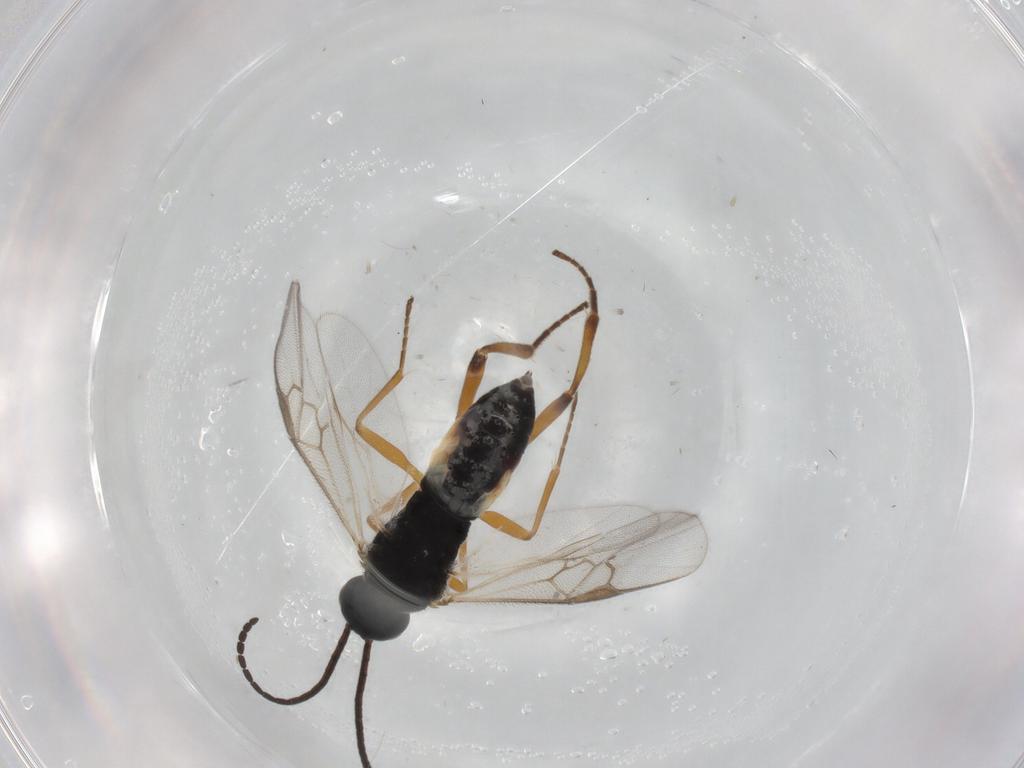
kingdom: Animalia
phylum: Arthropoda
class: Insecta
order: Hymenoptera
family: Braconidae
